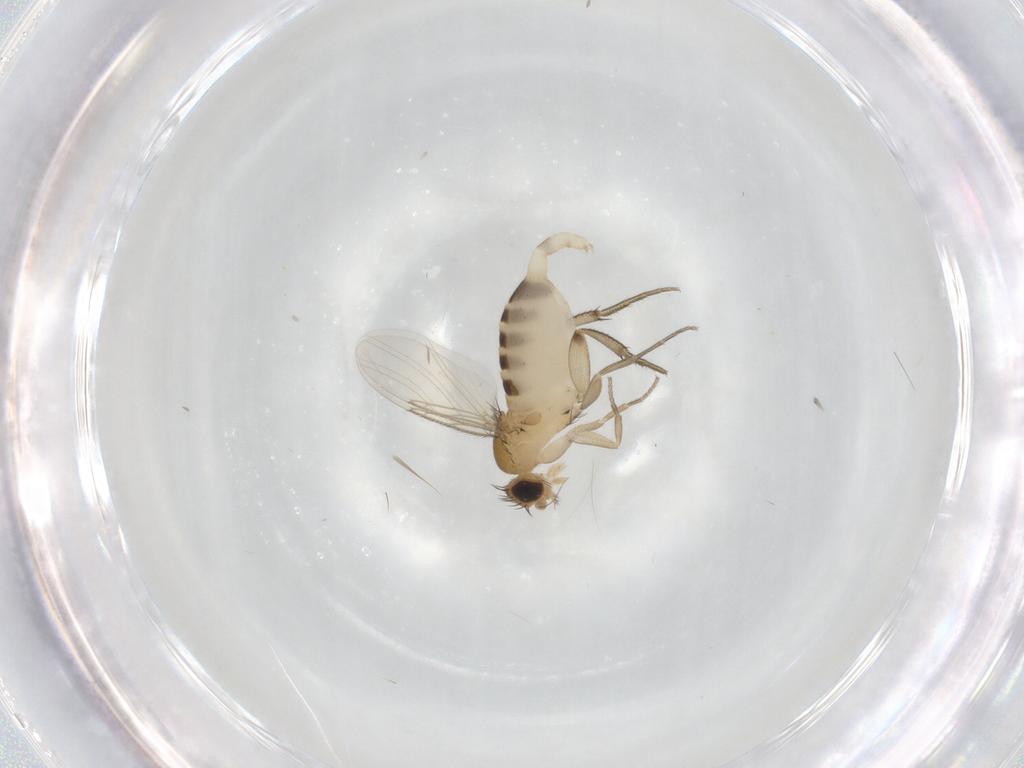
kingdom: Animalia
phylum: Arthropoda
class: Insecta
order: Diptera
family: Phoridae
